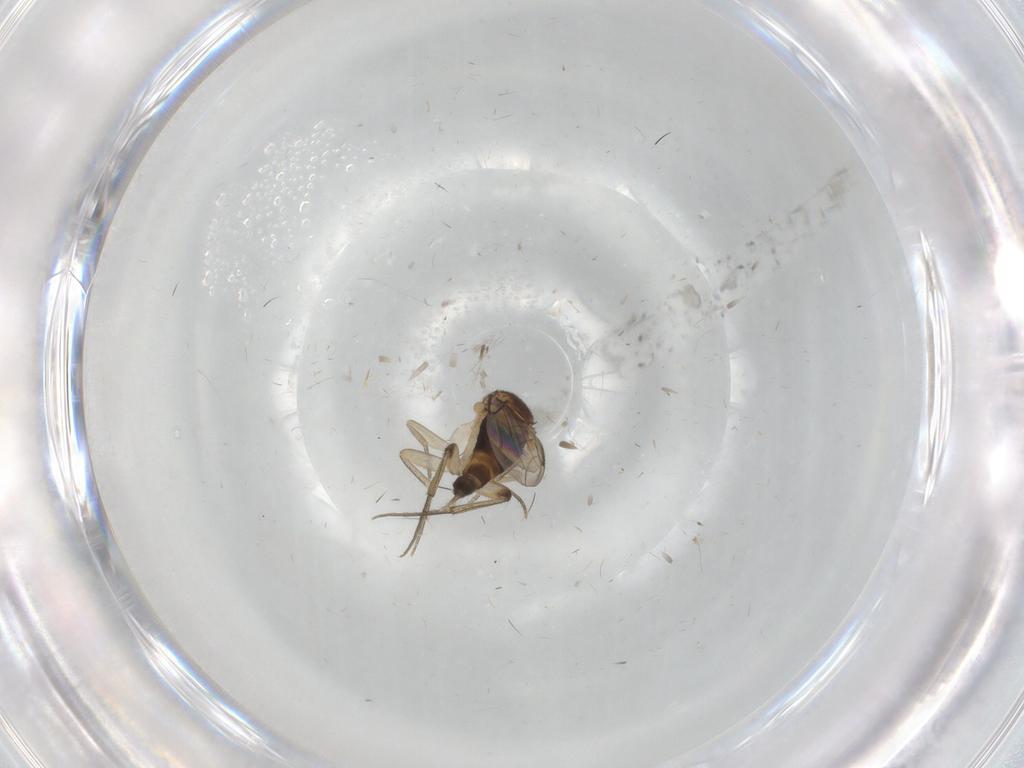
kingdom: Animalia
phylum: Arthropoda
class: Insecta
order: Diptera
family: Phoridae
